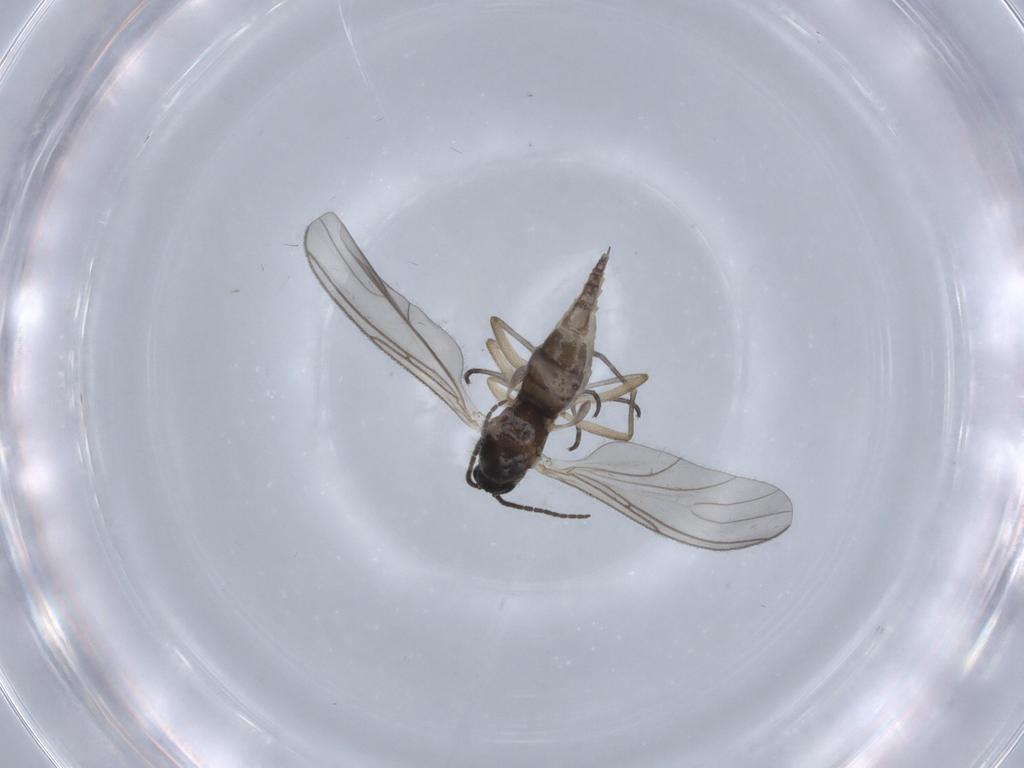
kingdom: Animalia
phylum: Arthropoda
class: Insecta
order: Diptera
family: Sciaridae
